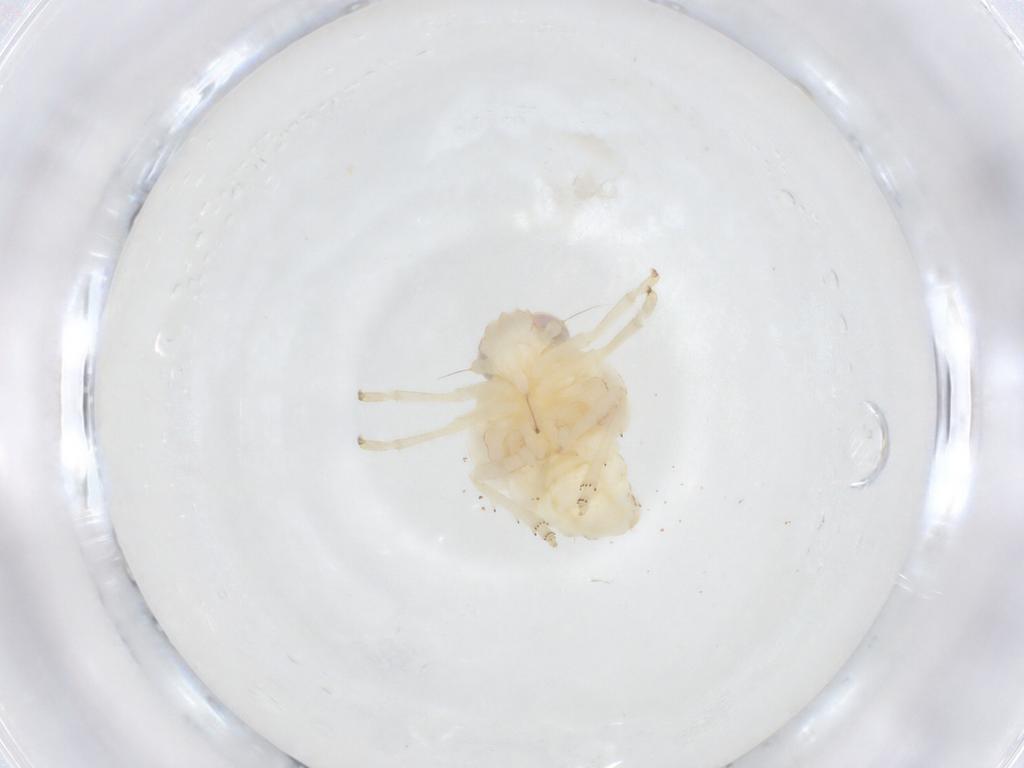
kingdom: Animalia
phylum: Arthropoda
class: Insecta
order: Hemiptera
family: Nogodinidae
